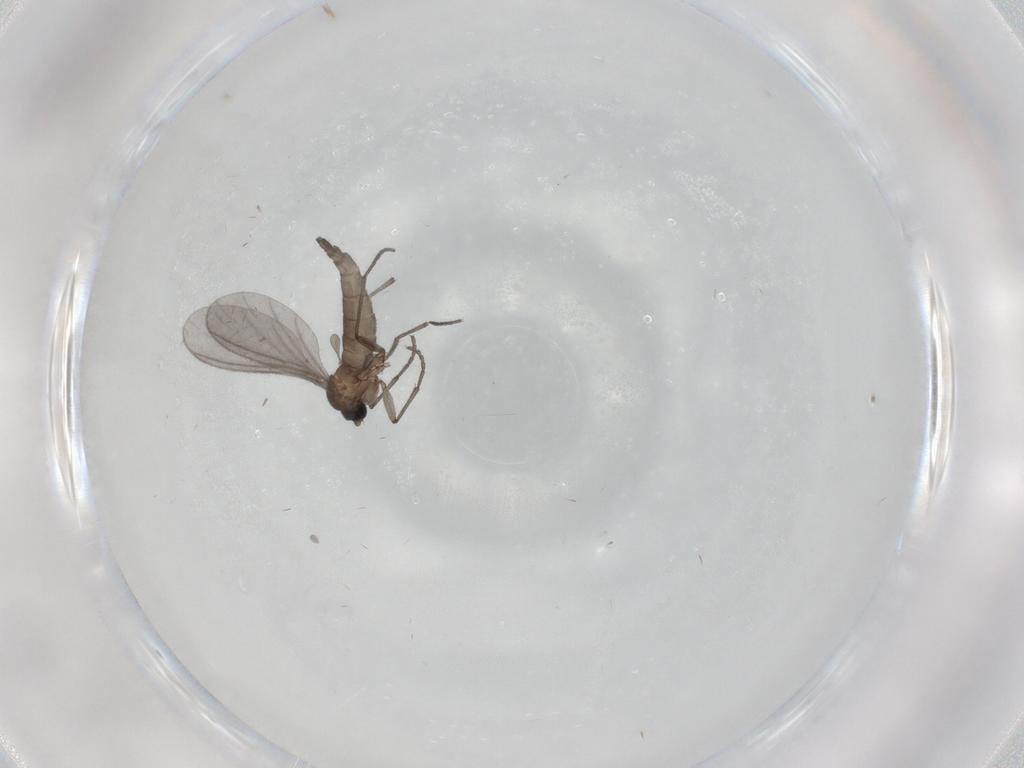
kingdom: Animalia
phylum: Arthropoda
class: Insecta
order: Diptera
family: Sciaridae
